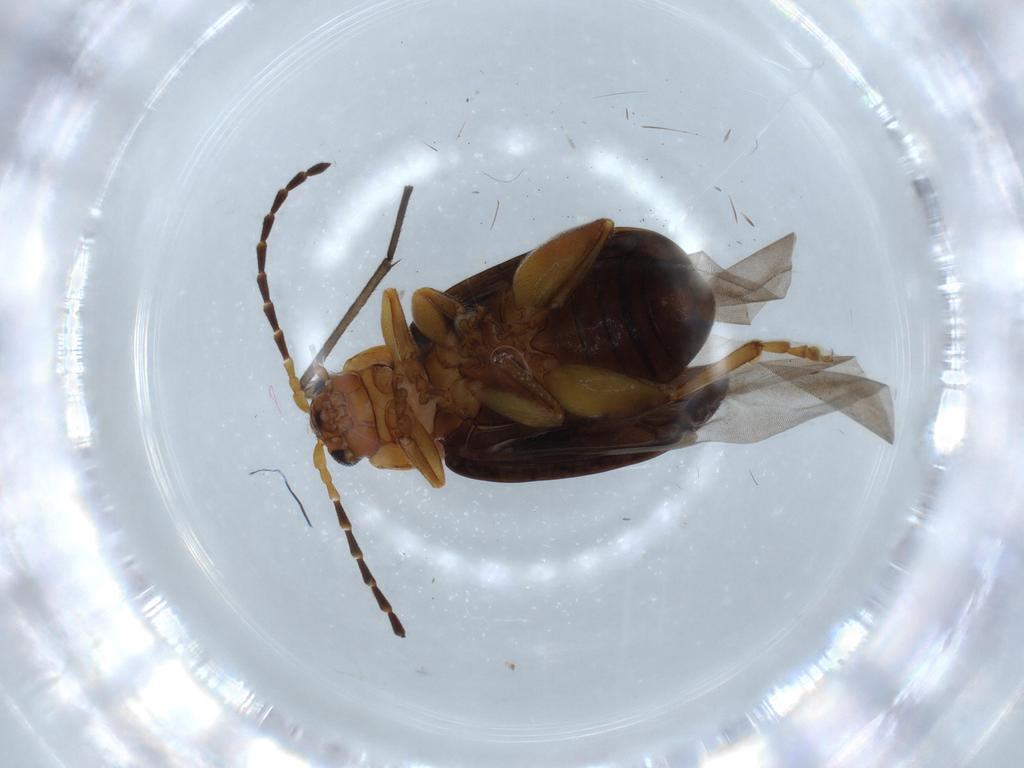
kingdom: Animalia
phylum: Arthropoda
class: Insecta
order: Coleoptera
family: Chrysomelidae
